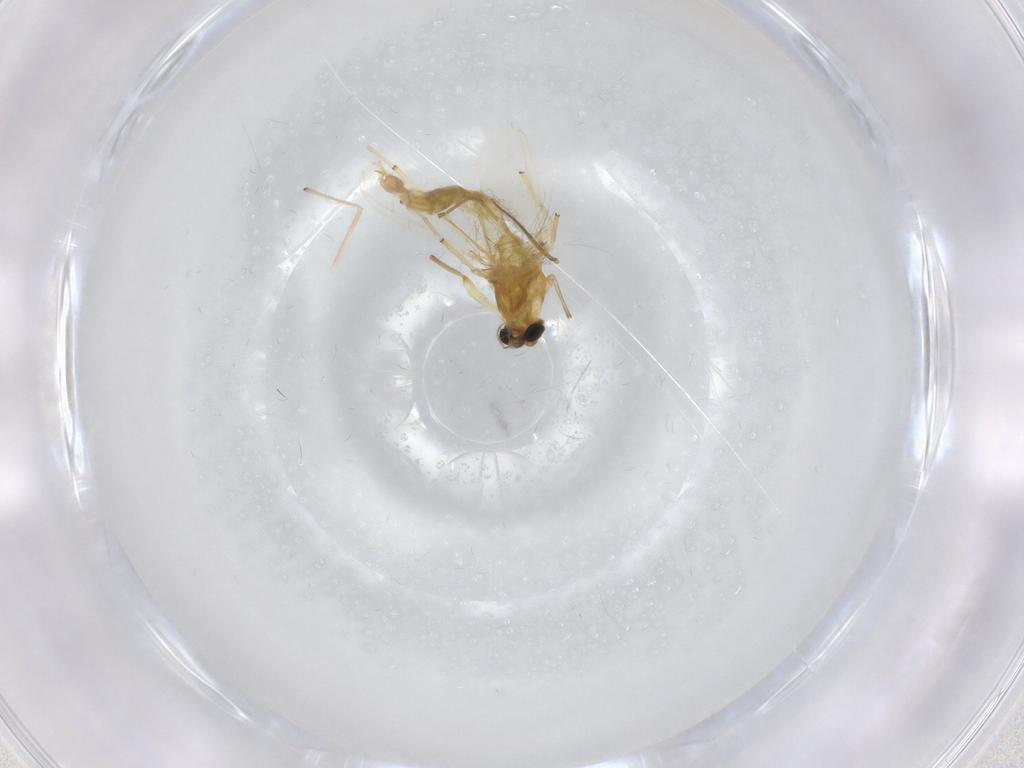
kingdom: Animalia
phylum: Arthropoda
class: Insecta
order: Diptera
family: Chironomidae
